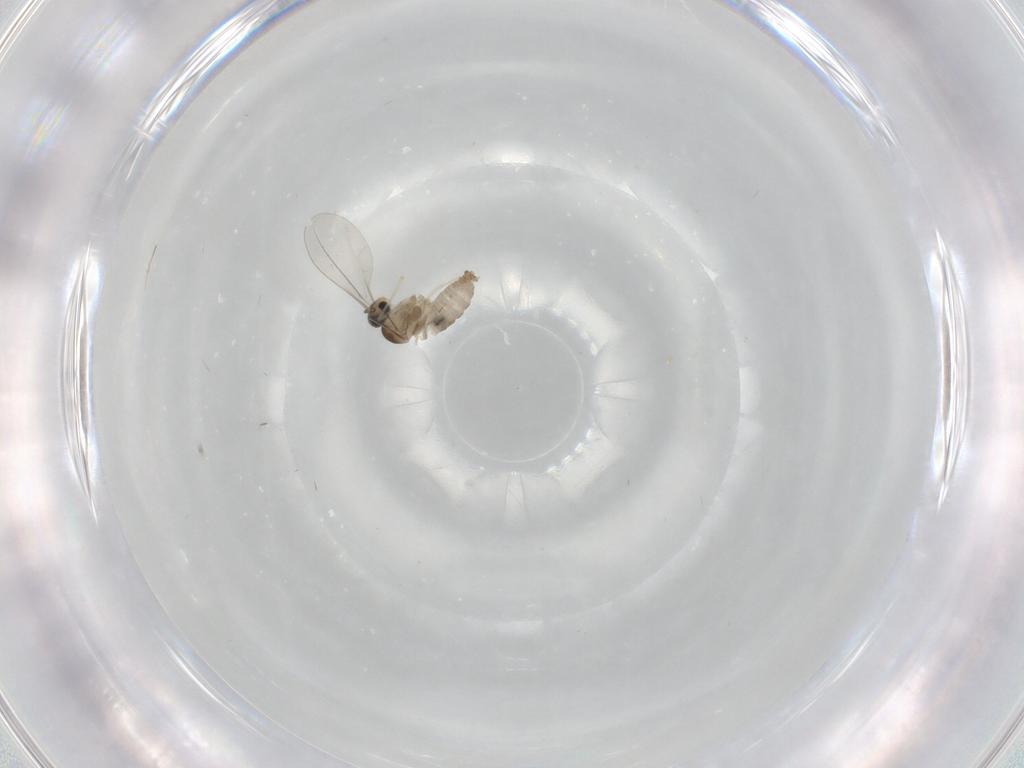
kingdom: Animalia
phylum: Arthropoda
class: Insecta
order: Diptera
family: Cecidomyiidae
